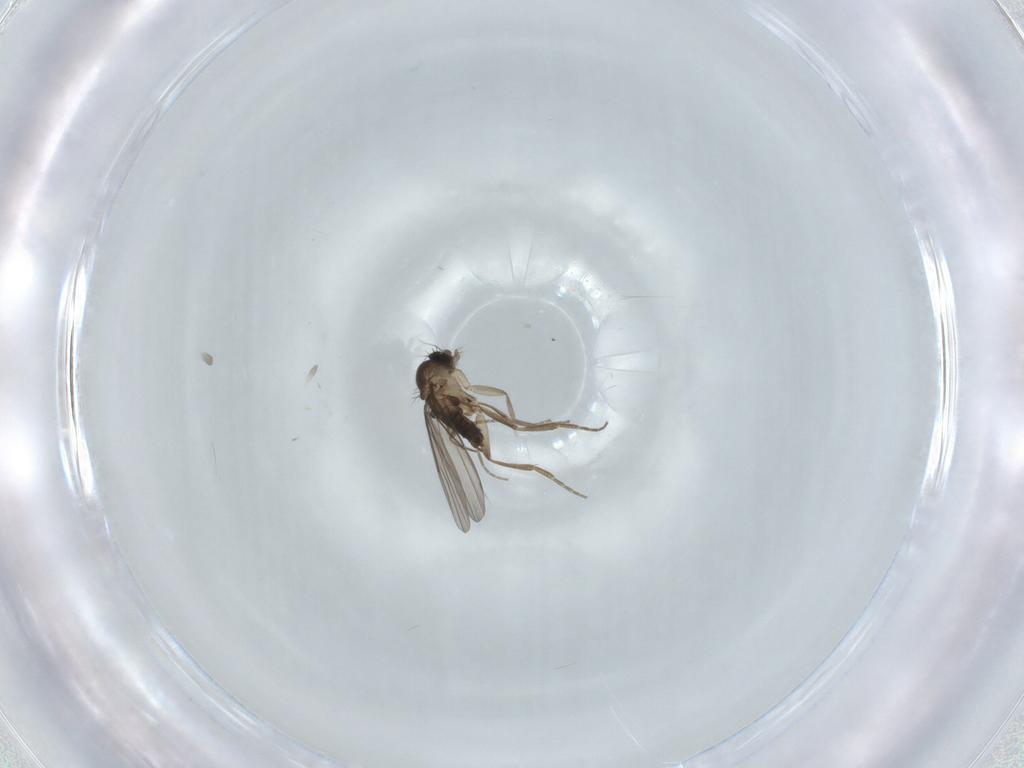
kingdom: Animalia
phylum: Arthropoda
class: Insecta
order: Diptera
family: Phoridae
